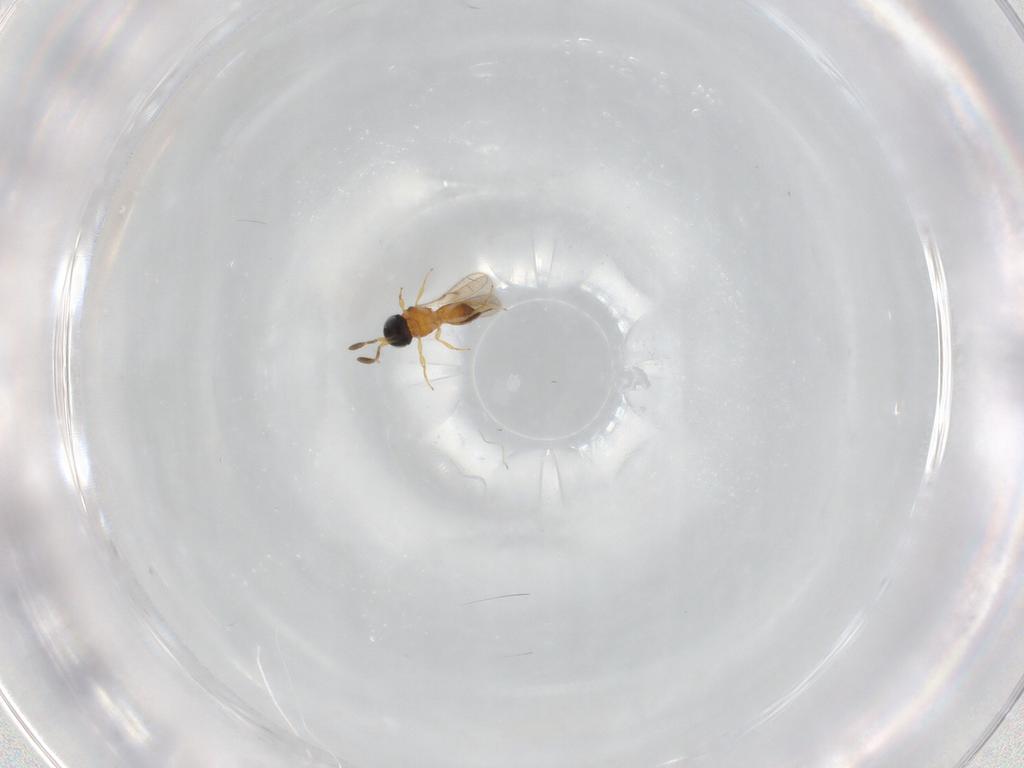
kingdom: Animalia
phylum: Arthropoda
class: Insecta
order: Hymenoptera
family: Scelionidae
